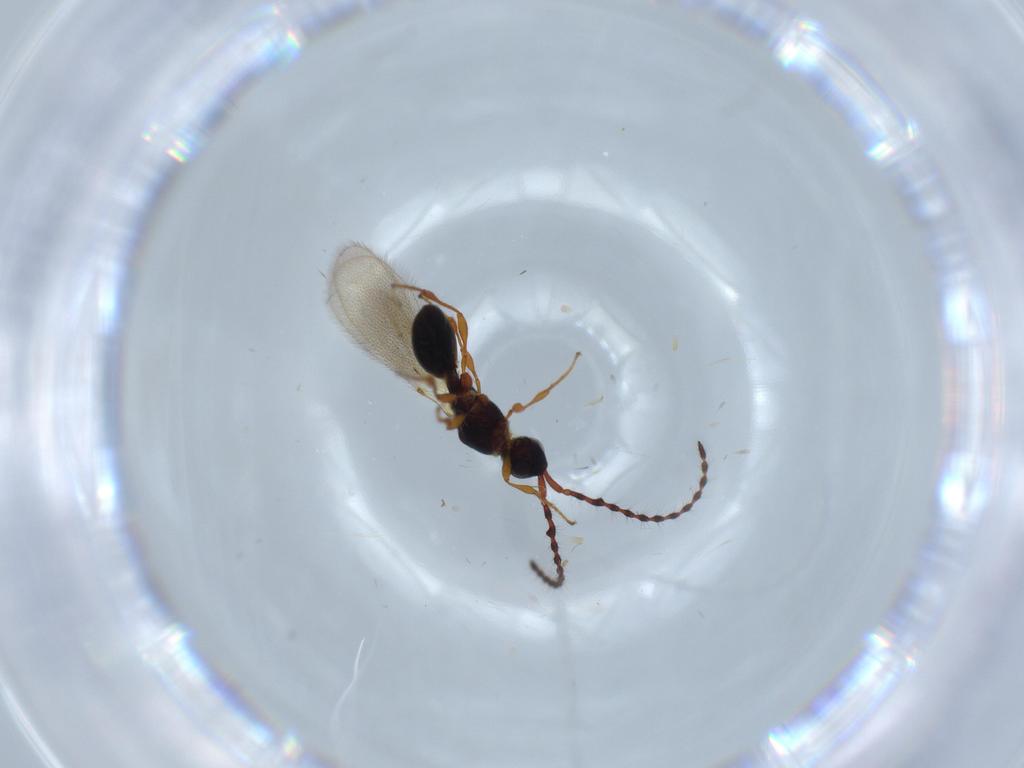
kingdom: Animalia
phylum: Arthropoda
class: Insecta
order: Hymenoptera
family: Diapriidae
